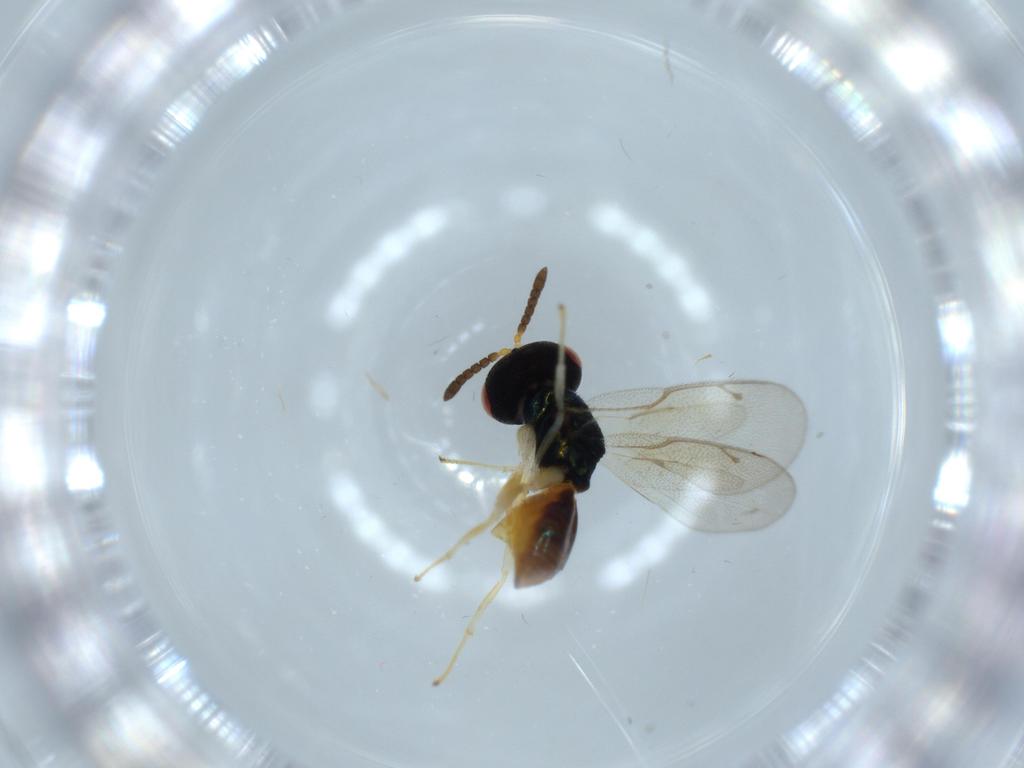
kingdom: Animalia
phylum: Arthropoda
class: Insecta
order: Hymenoptera
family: Pteromalidae
